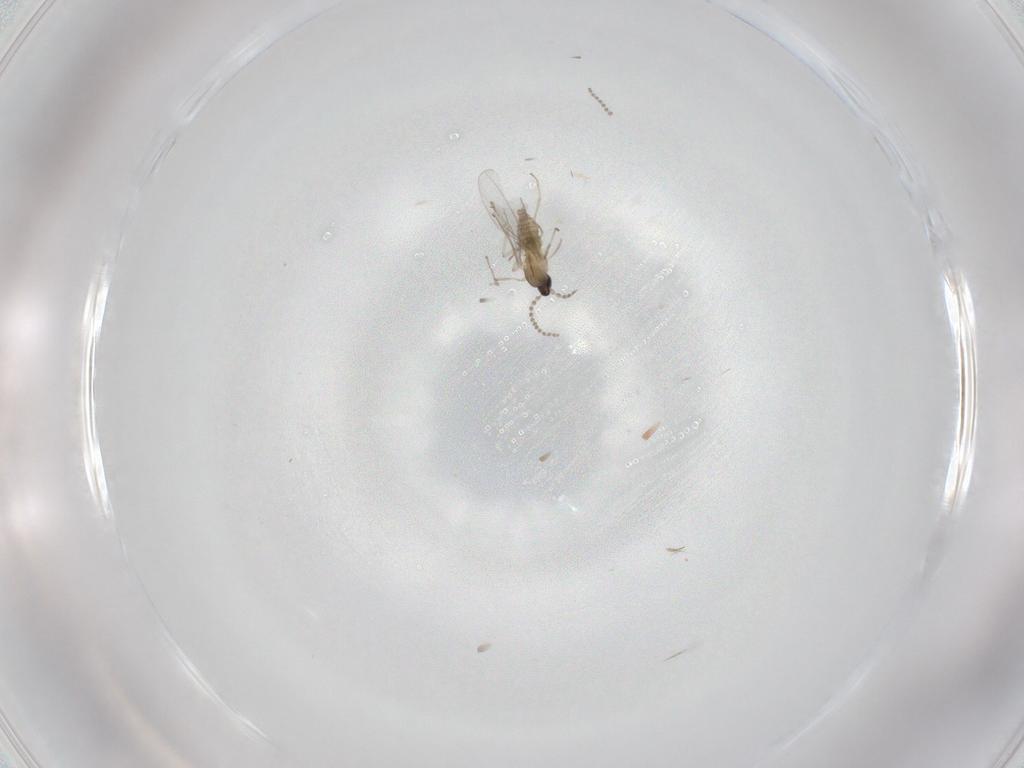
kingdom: Animalia
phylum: Arthropoda
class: Insecta
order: Diptera
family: Cecidomyiidae
